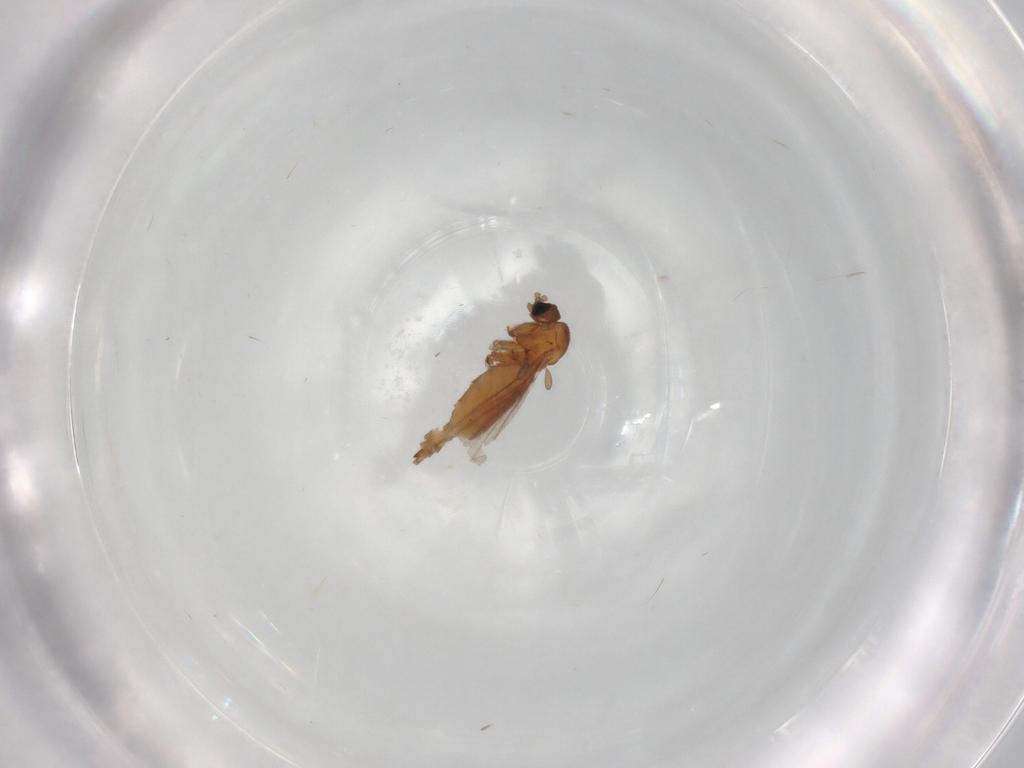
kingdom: Animalia
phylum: Arthropoda
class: Insecta
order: Diptera
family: Sciaridae
